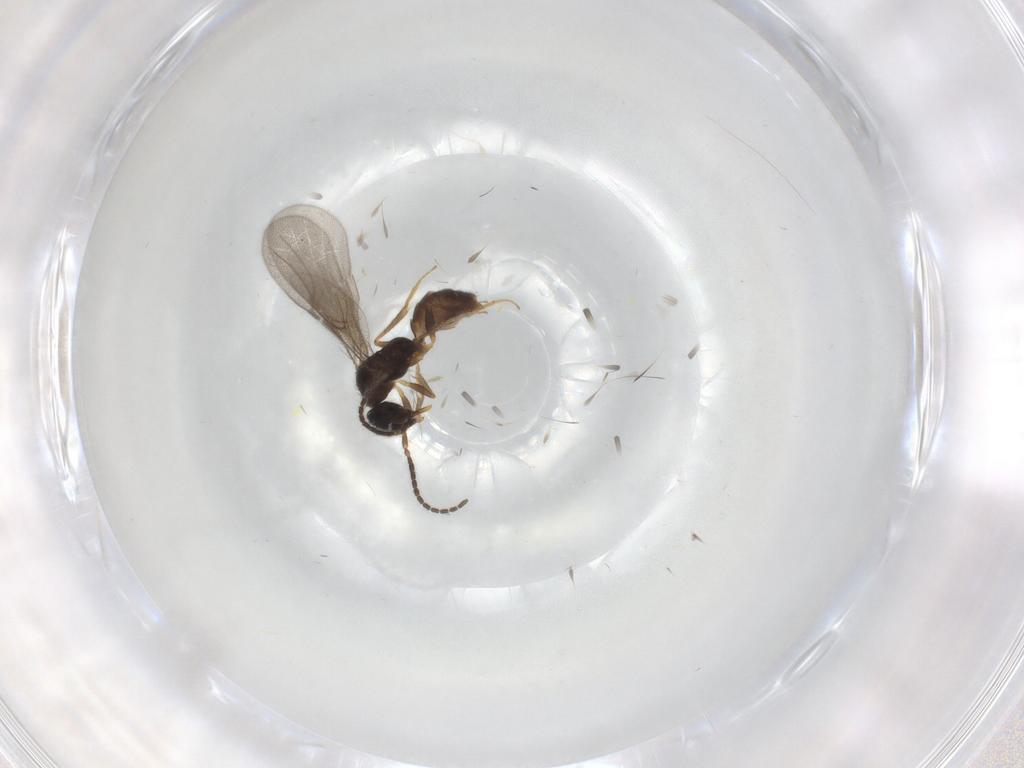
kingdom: Animalia
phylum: Arthropoda
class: Insecta
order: Hymenoptera
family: Bethylidae
